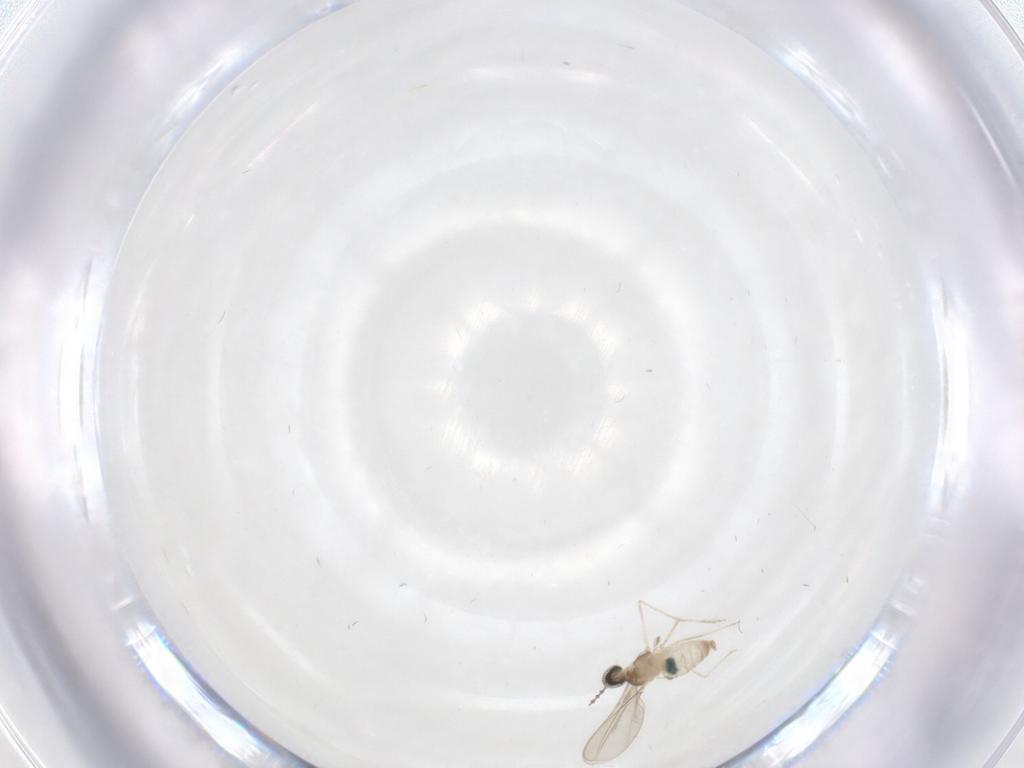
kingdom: Animalia
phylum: Arthropoda
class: Insecta
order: Diptera
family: Cecidomyiidae
